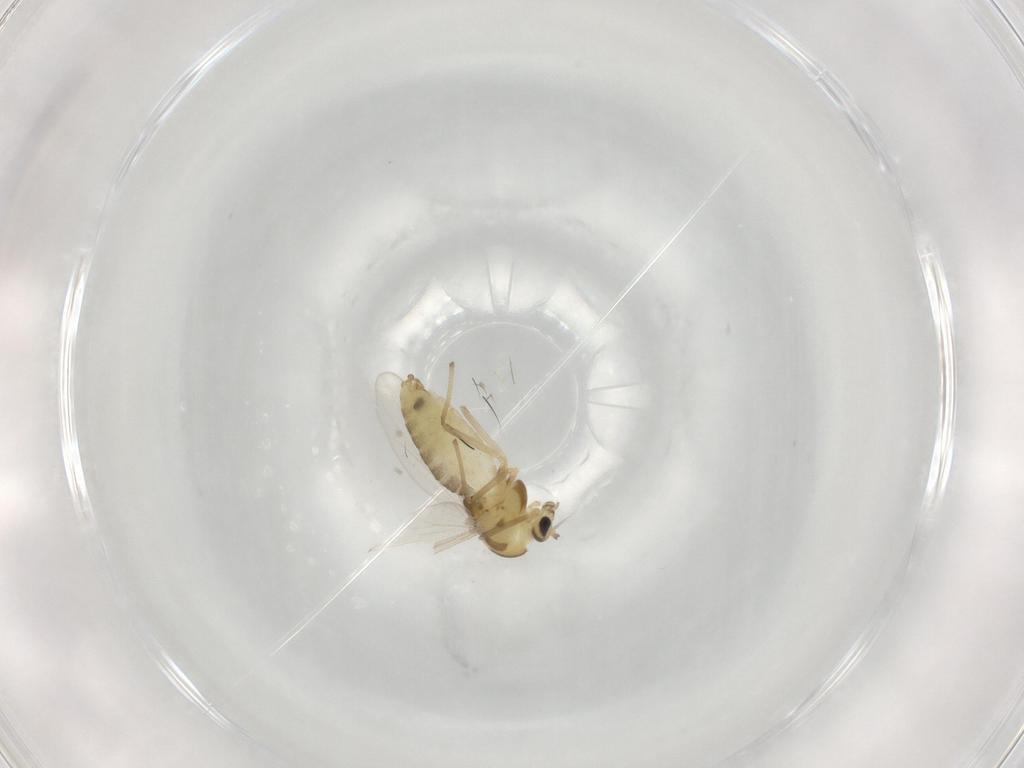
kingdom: Animalia
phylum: Arthropoda
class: Insecta
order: Diptera
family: Chironomidae
